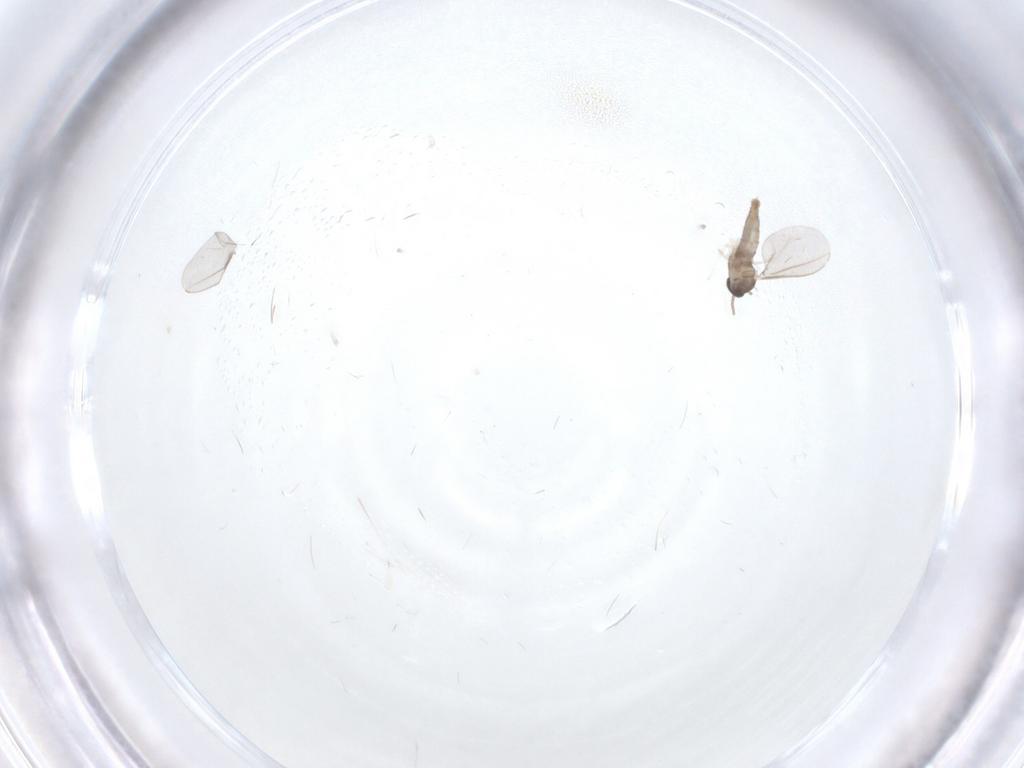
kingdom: Animalia
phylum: Arthropoda
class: Insecta
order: Diptera
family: Cecidomyiidae
